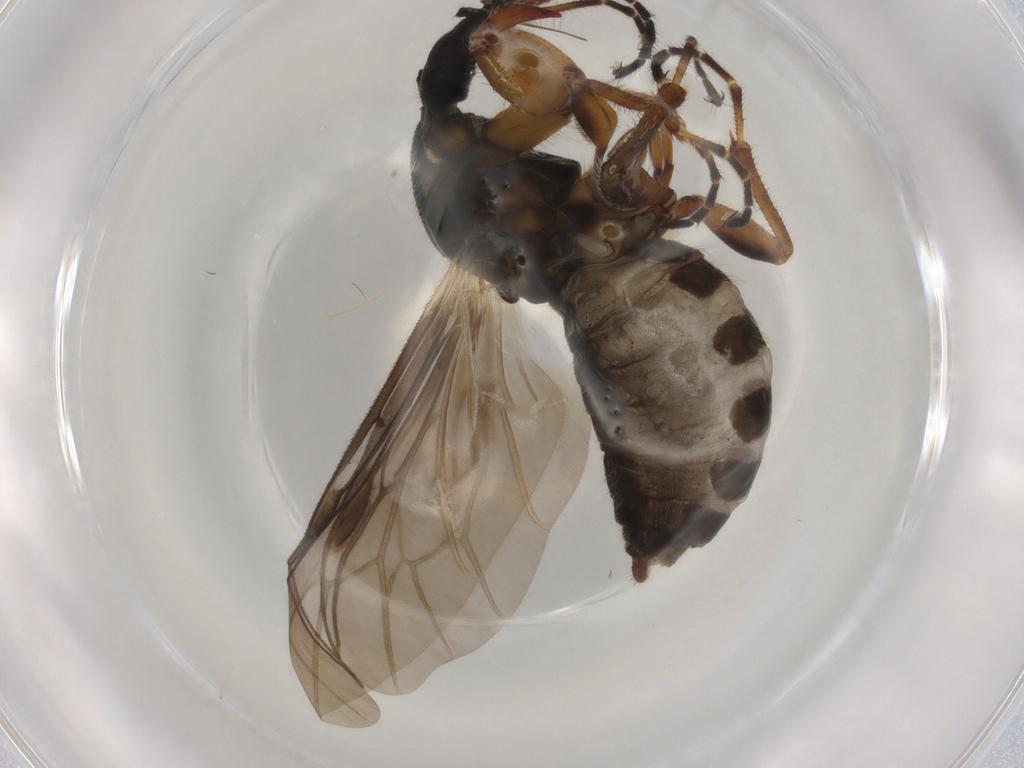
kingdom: Animalia
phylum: Arthropoda
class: Insecta
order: Diptera
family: Bibionidae
